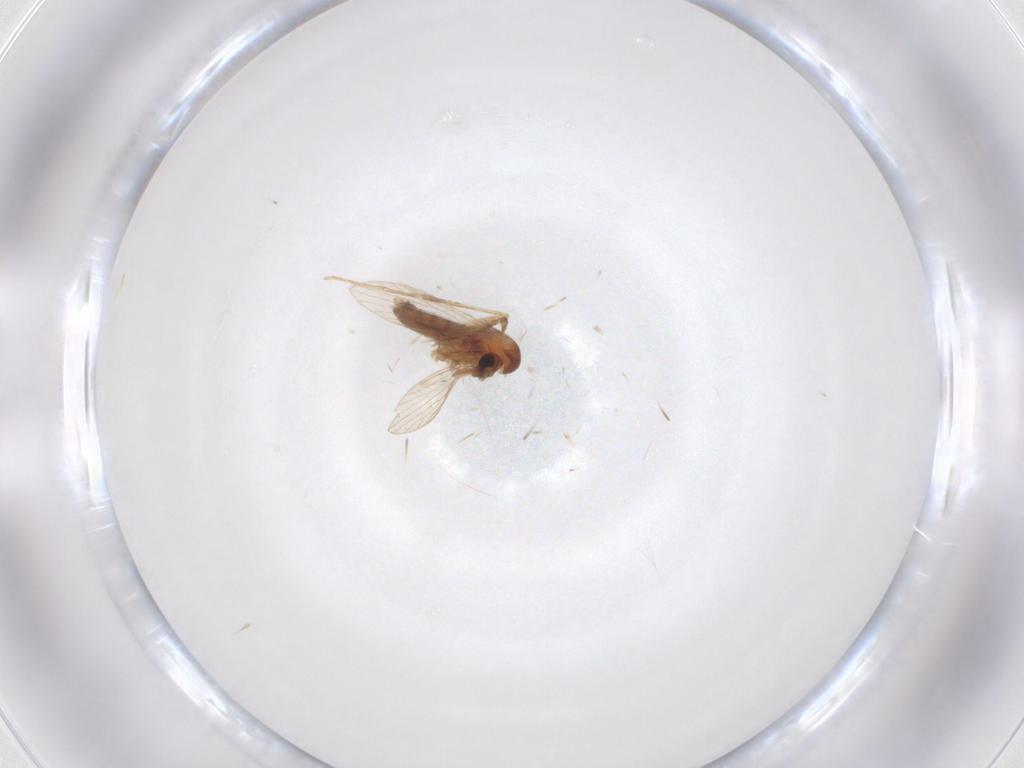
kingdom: Animalia
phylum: Arthropoda
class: Insecta
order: Diptera
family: Psychodidae
